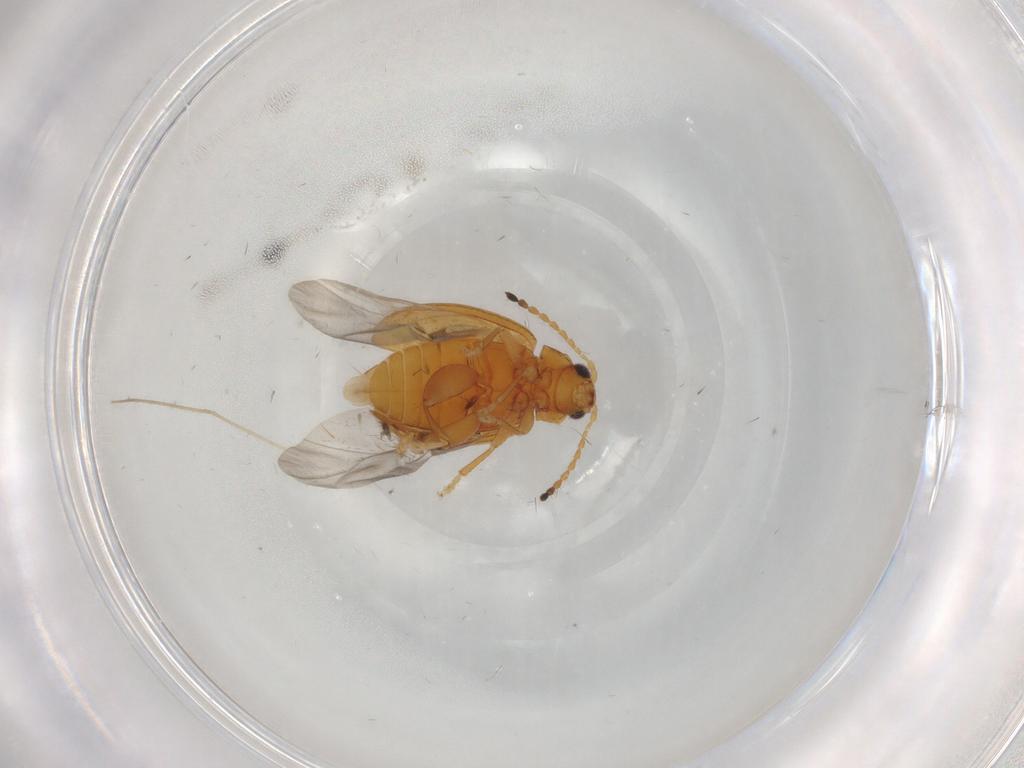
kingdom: Animalia
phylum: Arthropoda
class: Insecta
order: Coleoptera
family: Chrysomelidae
